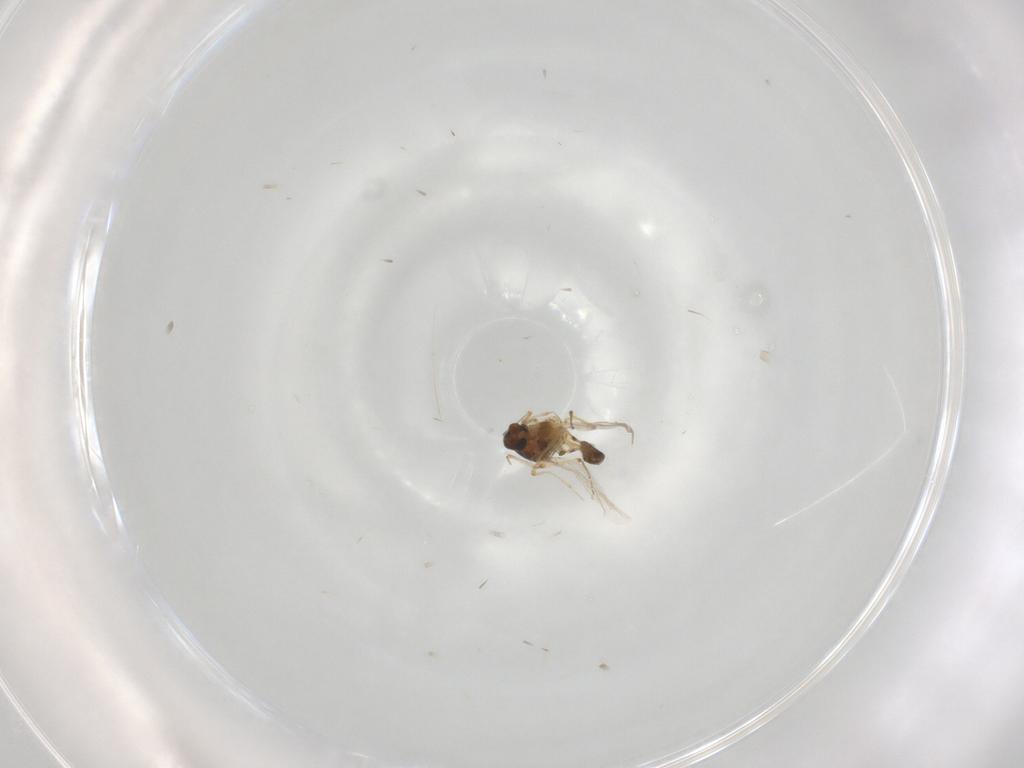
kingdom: Animalia
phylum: Arthropoda
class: Insecta
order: Diptera
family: Ceratopogonidae
